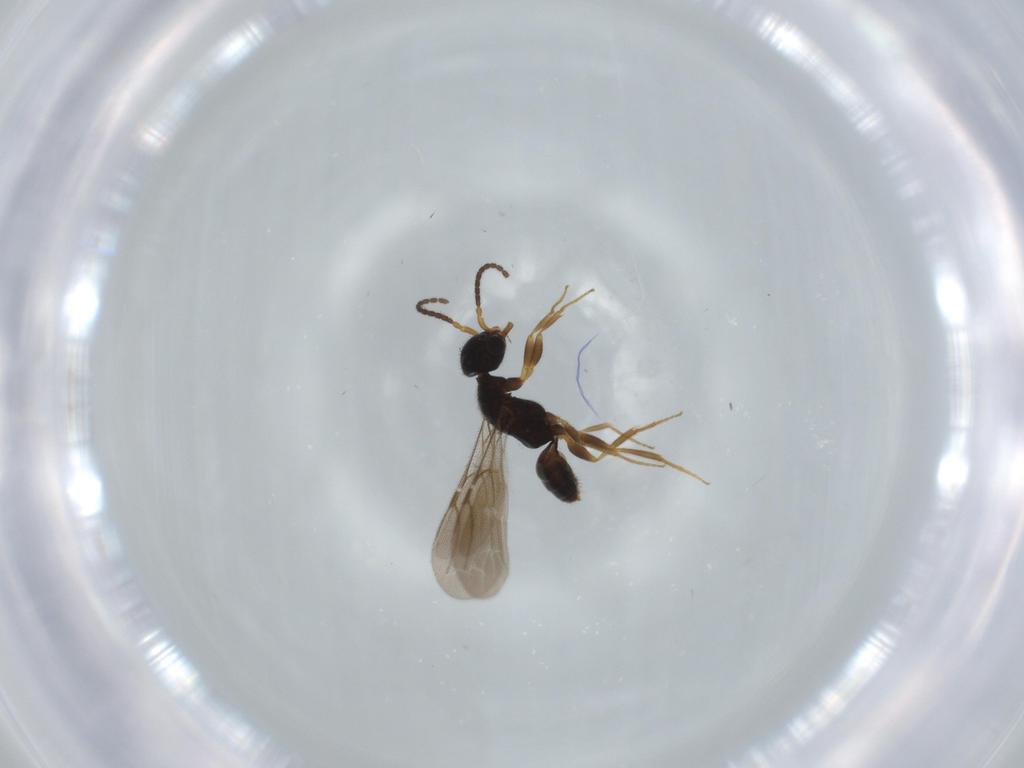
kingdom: Animalia
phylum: Arthropoda
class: Insecta
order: Hymenoptera
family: Bethylidae
